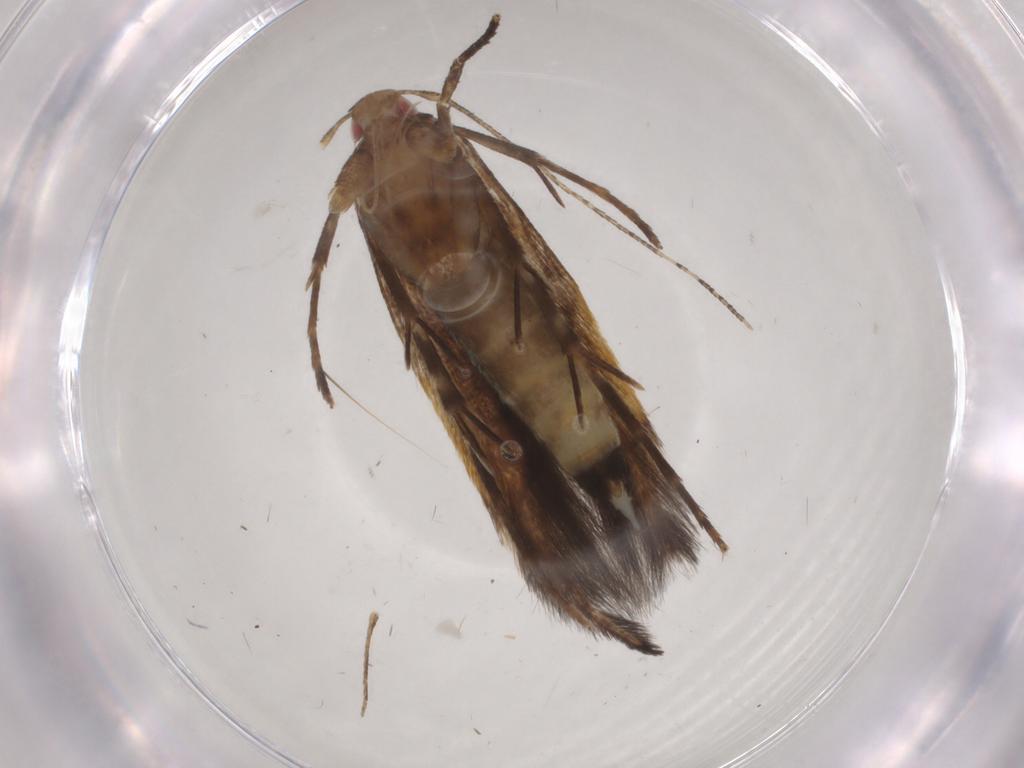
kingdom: Animalia
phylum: Arthropoda
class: Insecta
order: Lepidoptera
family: Cosmopterigidae
